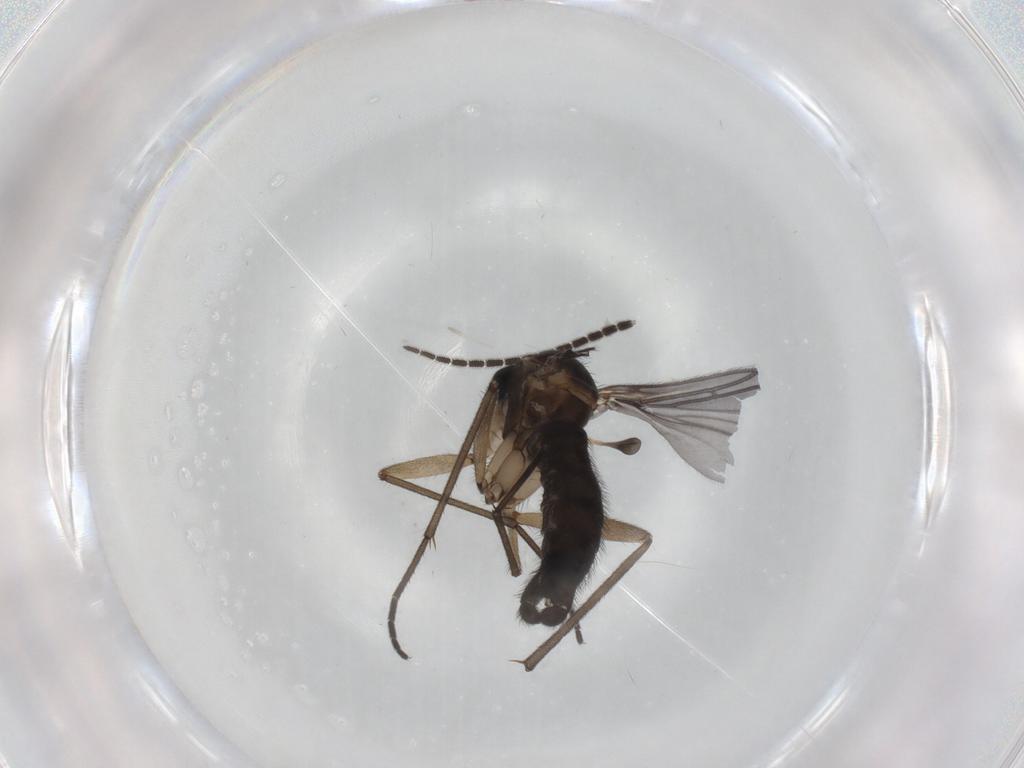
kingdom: Animalia
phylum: Arthropoda
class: Insecta
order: Diptera
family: Sciaridae
